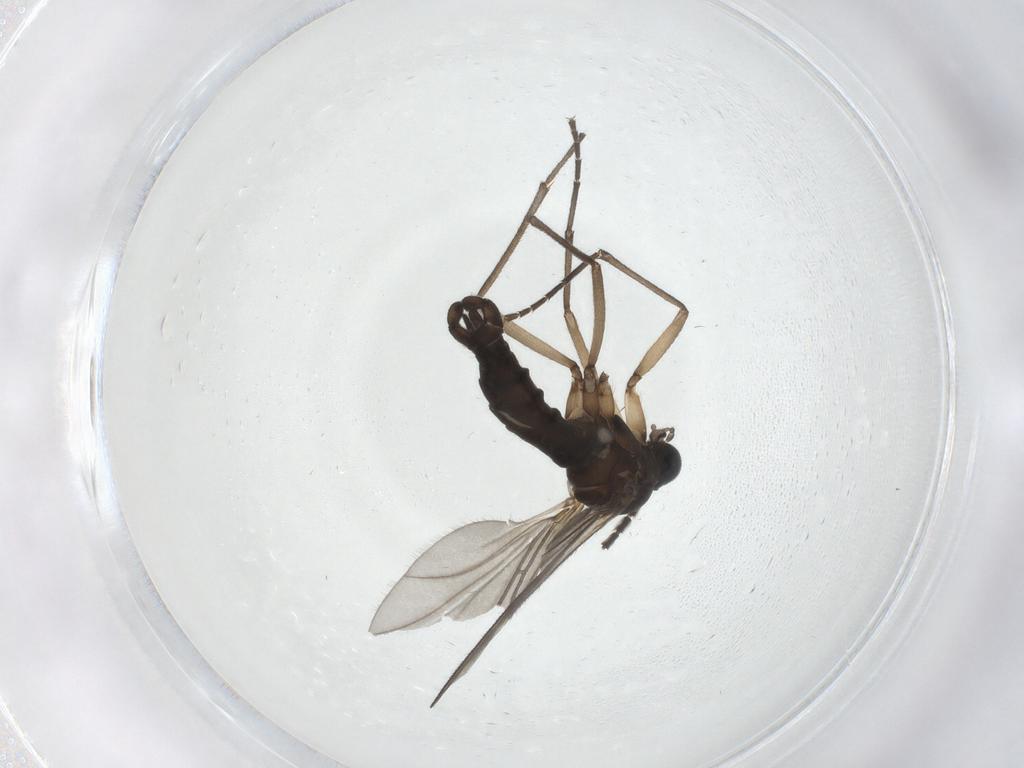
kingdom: Animalia
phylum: Arthropoda
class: Insecta
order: Diptera
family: Sciaridae
